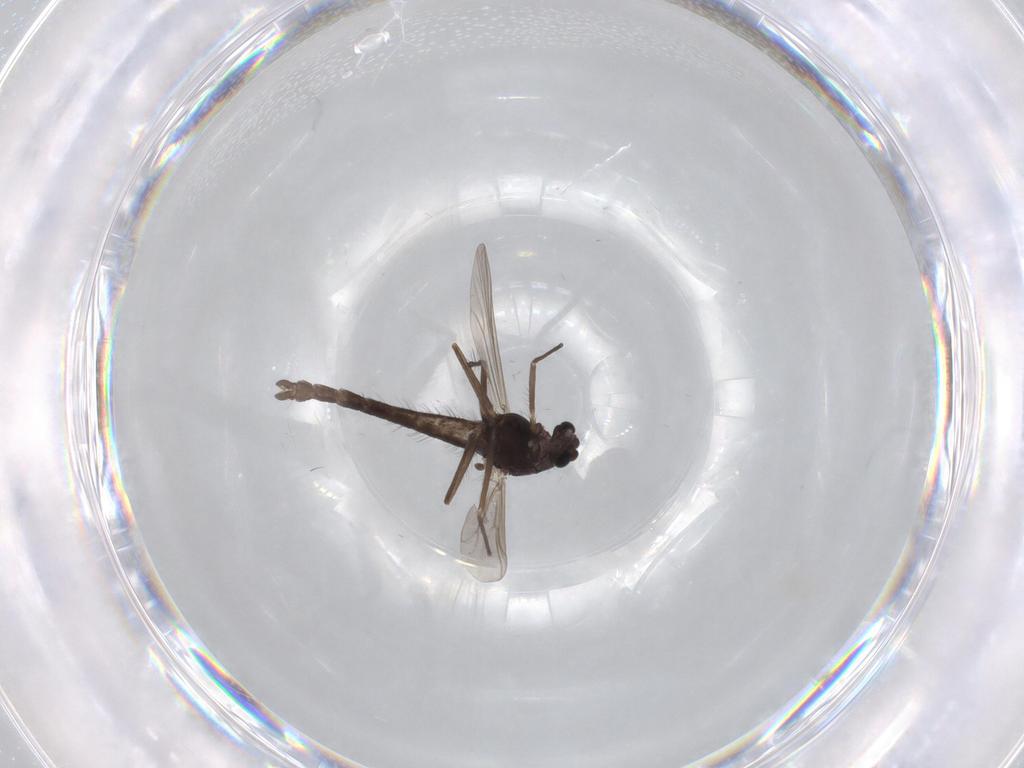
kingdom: Animalia
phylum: Arthropoda
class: Insecta
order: Diptera
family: Chironomidae
